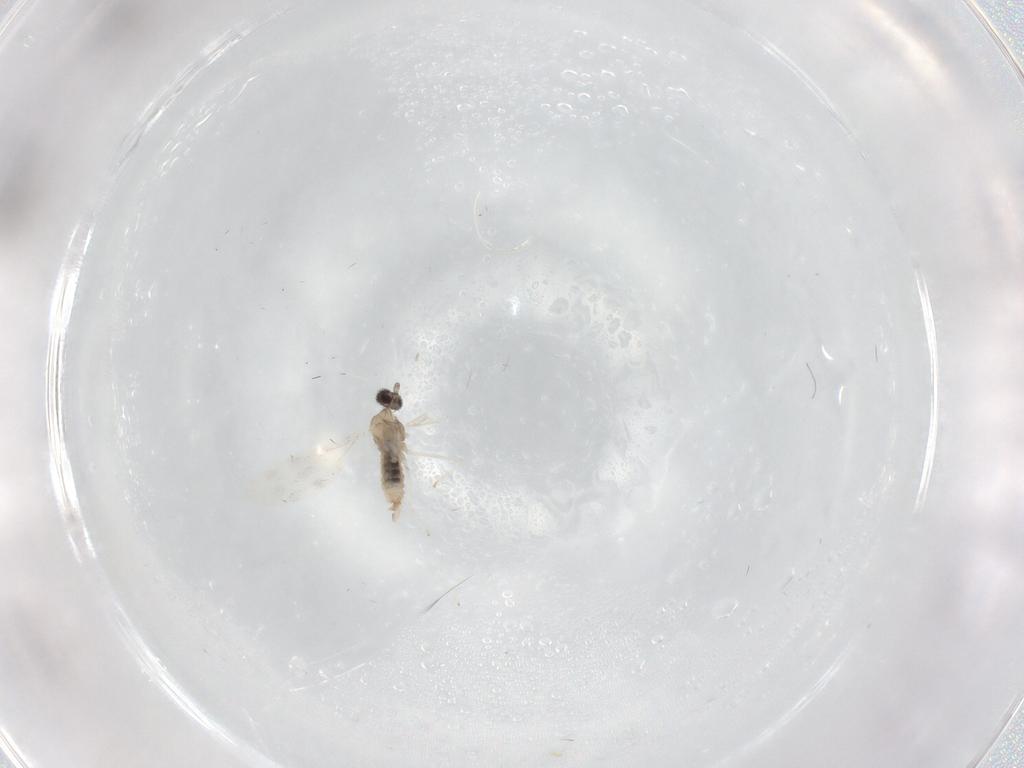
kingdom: Animalia
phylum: Arthropoda
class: Insecta
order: Diptera
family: Cecidomyiidae
